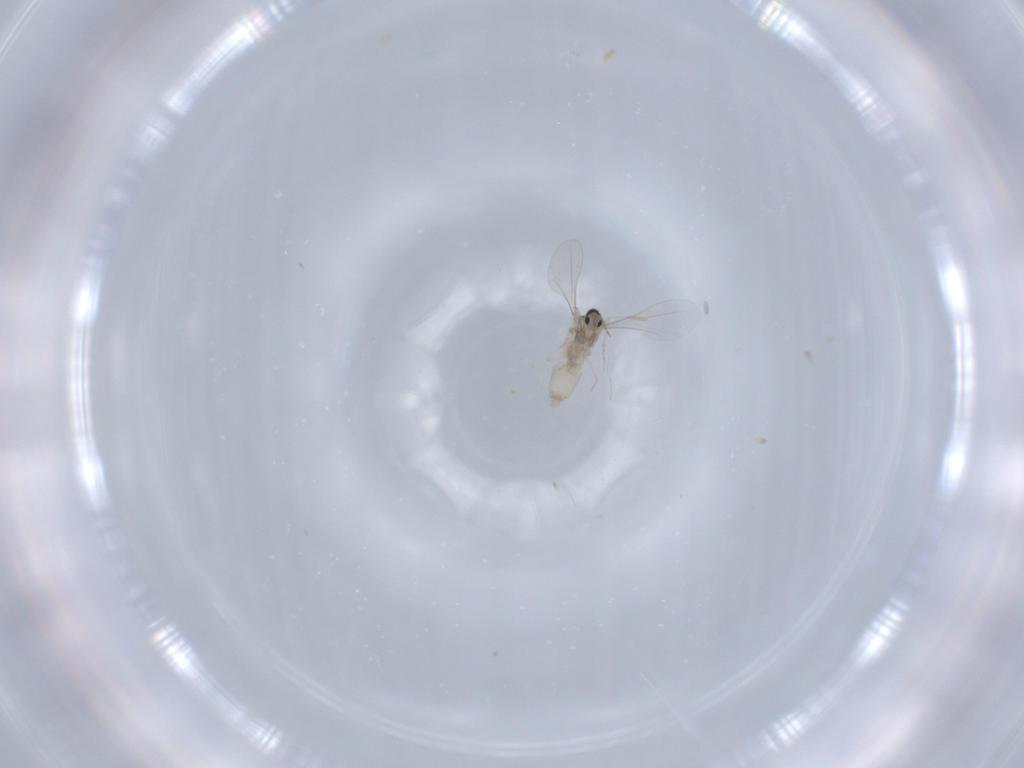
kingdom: Animalia
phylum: Arthropoda
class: Insecta
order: Diptera
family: Cecidomyiidae
